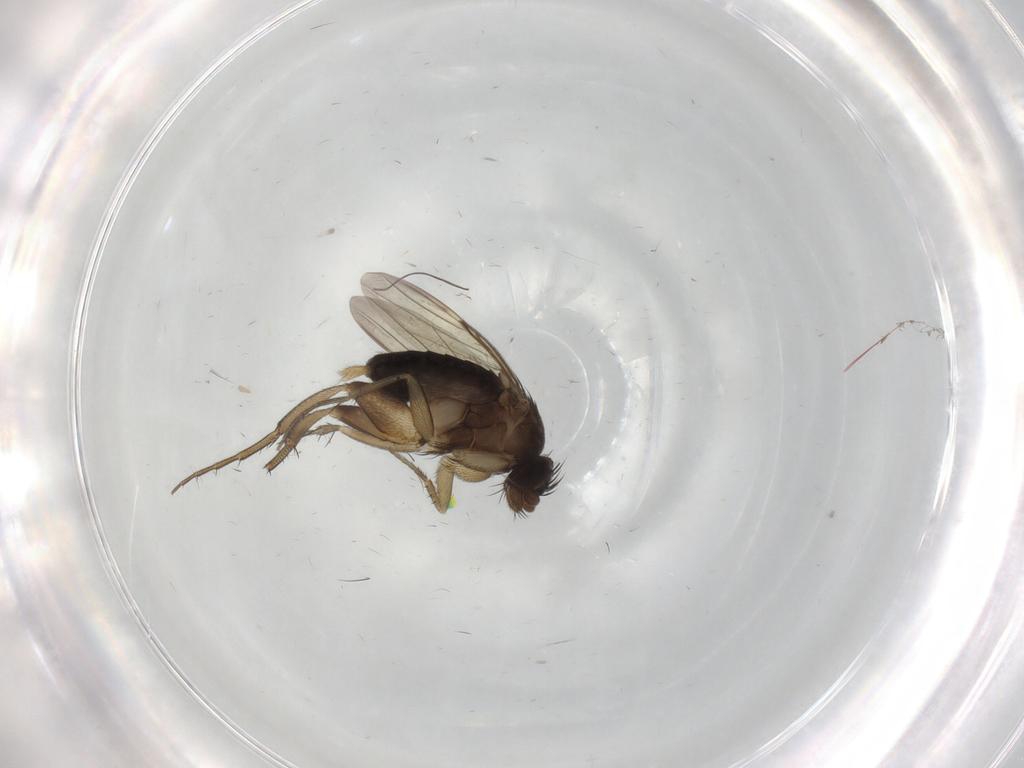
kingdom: Animalia
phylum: Arthropoda
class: Insecta
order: Diptera
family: Phoridae
